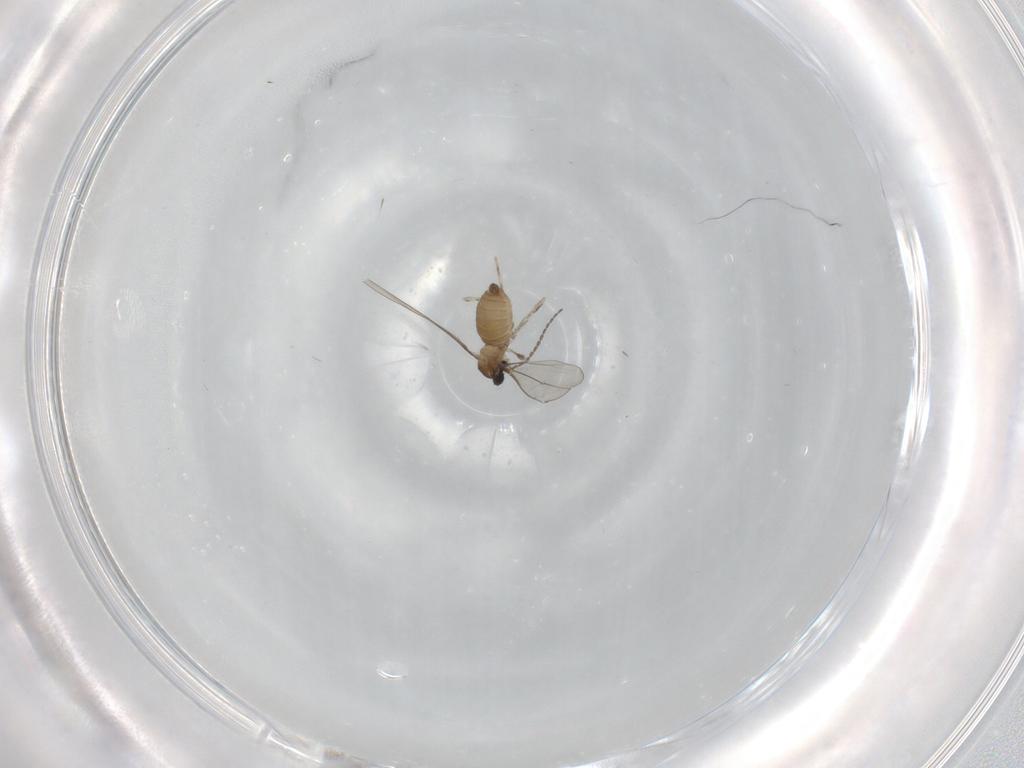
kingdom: Animalia
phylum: Arthropoda
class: Insecta
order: Diptera
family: Cecidomyiidae
